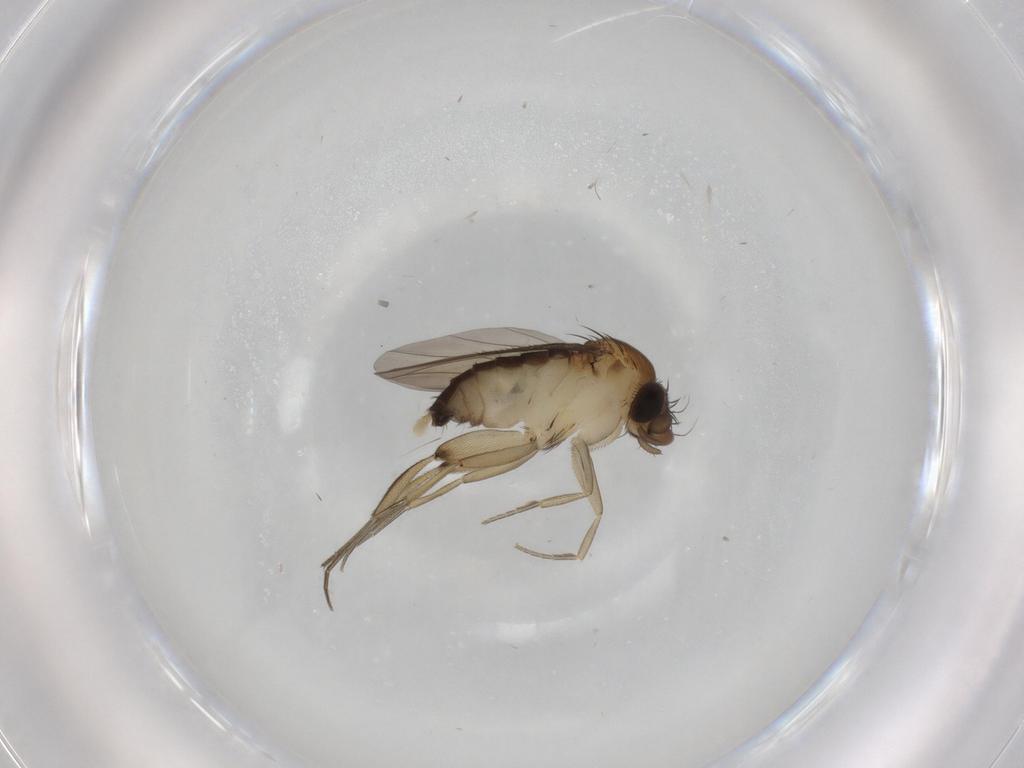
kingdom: Animalia
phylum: Arthropoda
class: Insecta
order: Diptera
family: Phoridae
